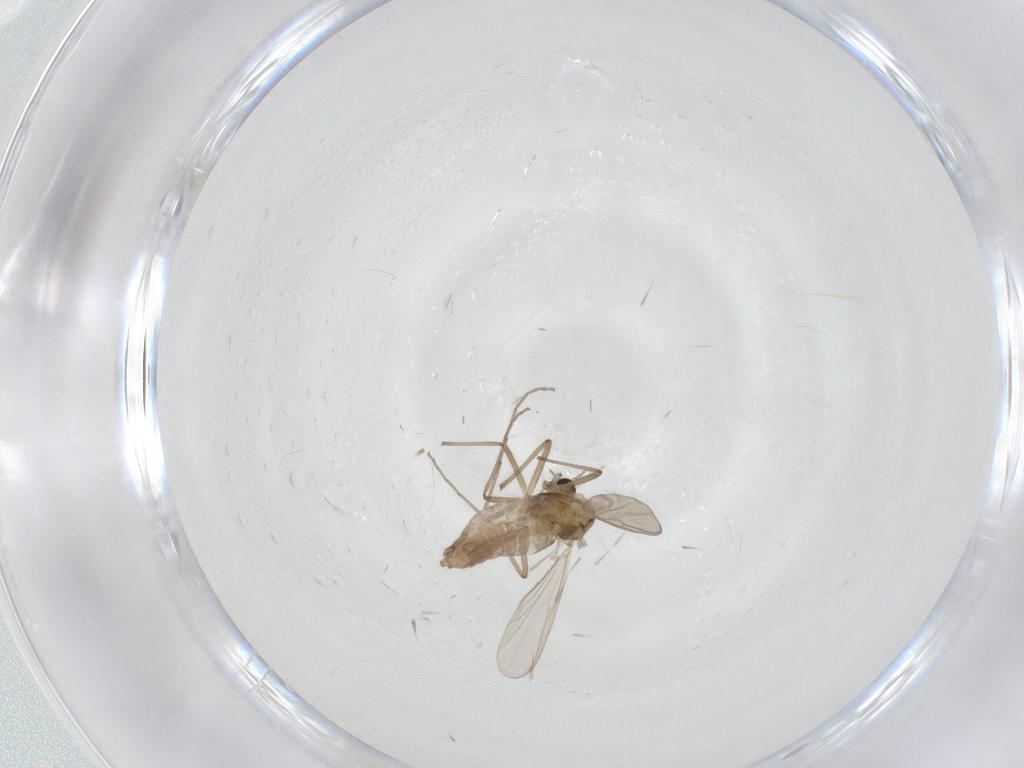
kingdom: Animalia
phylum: Arthropoda
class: Insecta
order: Diptera
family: Chironomidae
